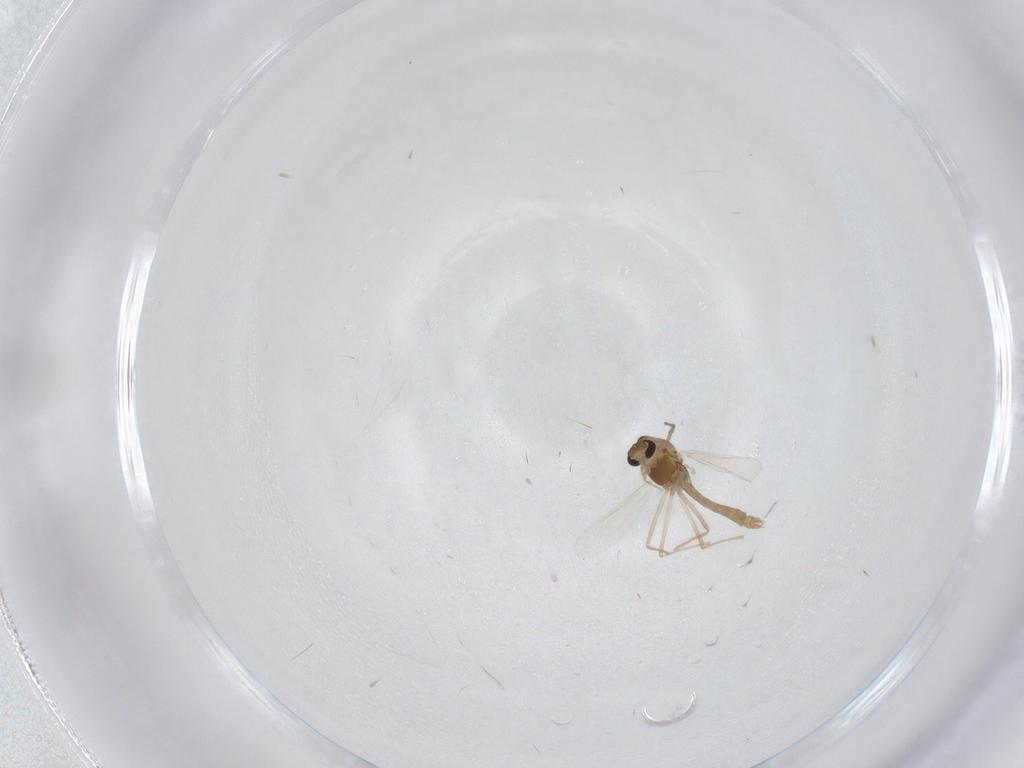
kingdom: Animalia
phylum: Arthropoda
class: Insecta
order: Diptera
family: Chironomidae
